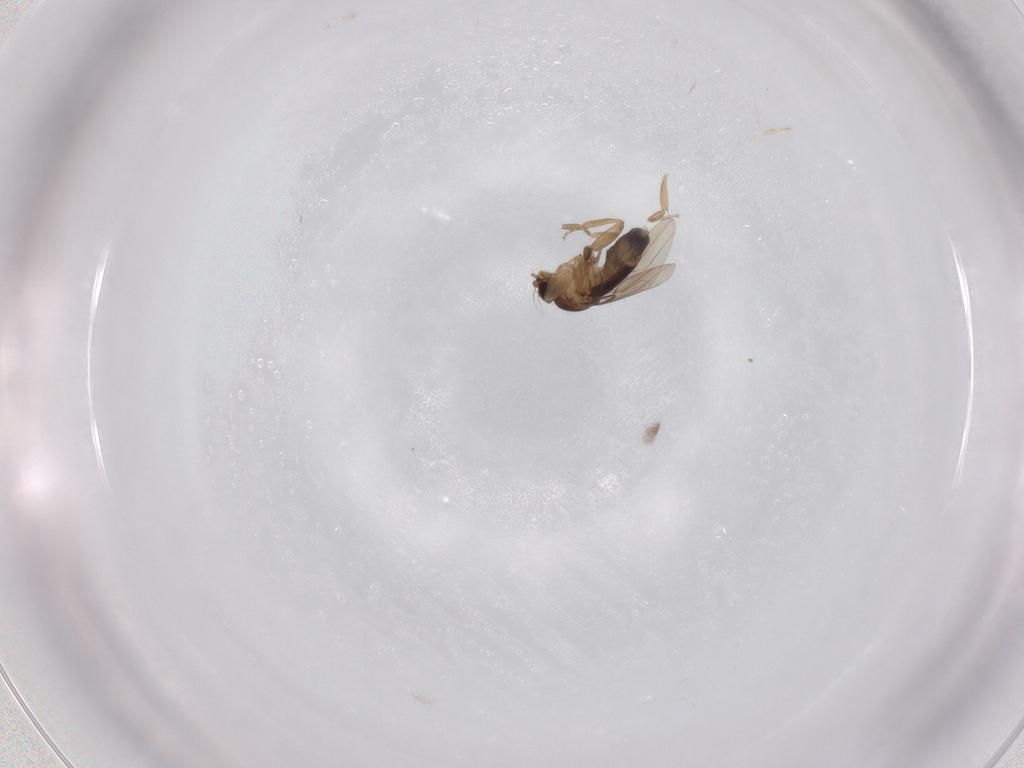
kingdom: Animalia
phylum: Arthropoda
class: Insecta
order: Diptera
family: Phoridae
